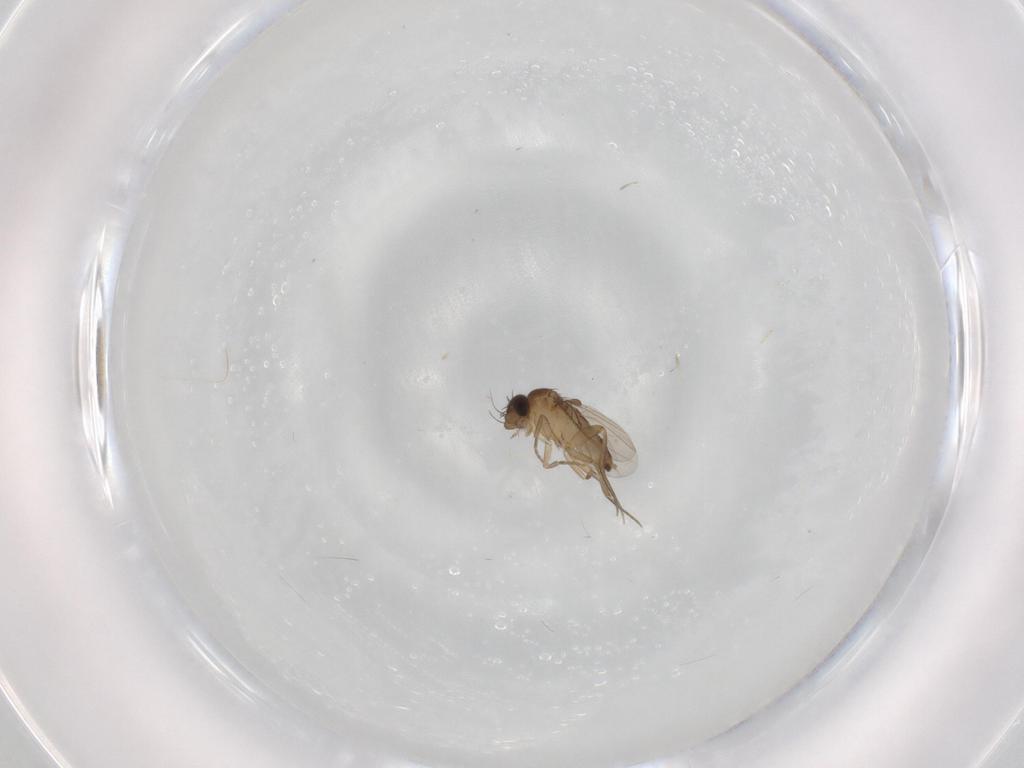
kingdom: Animalia
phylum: Arthropoda
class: Insecta
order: Diptera
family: Phoridae
